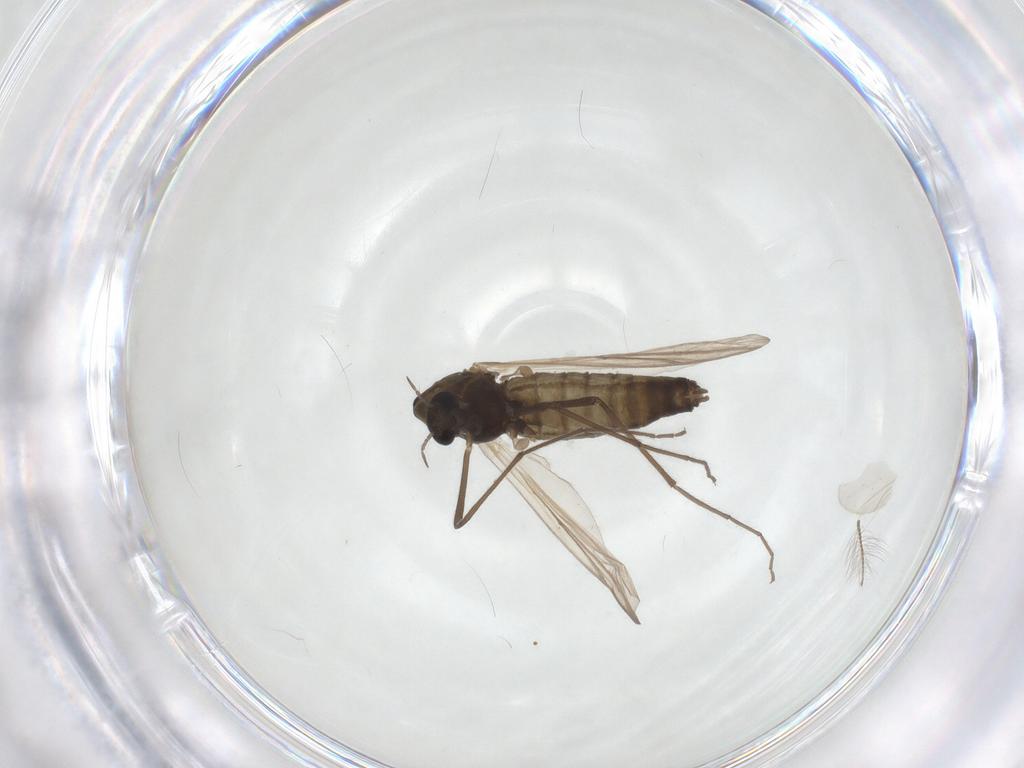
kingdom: Animalia
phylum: Arthropoda
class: Insecta
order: Diptera
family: Chironomidae
